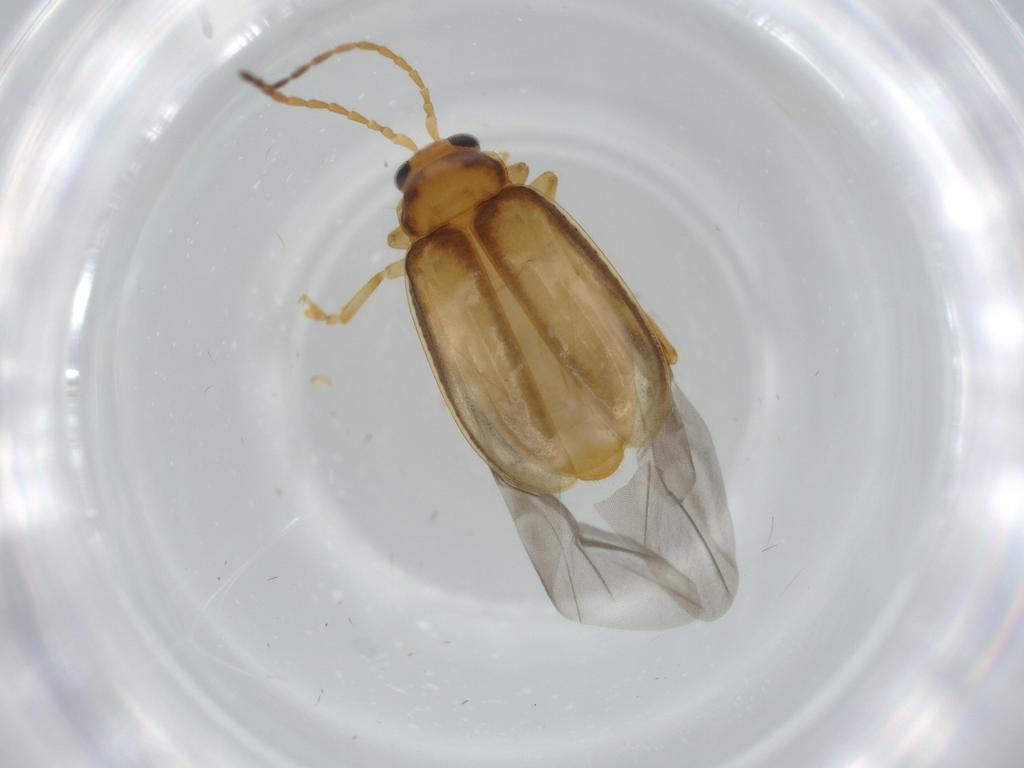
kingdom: Animalia
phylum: Arthropoda
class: Insecta
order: Coleoptera
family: Chrysomelidae
